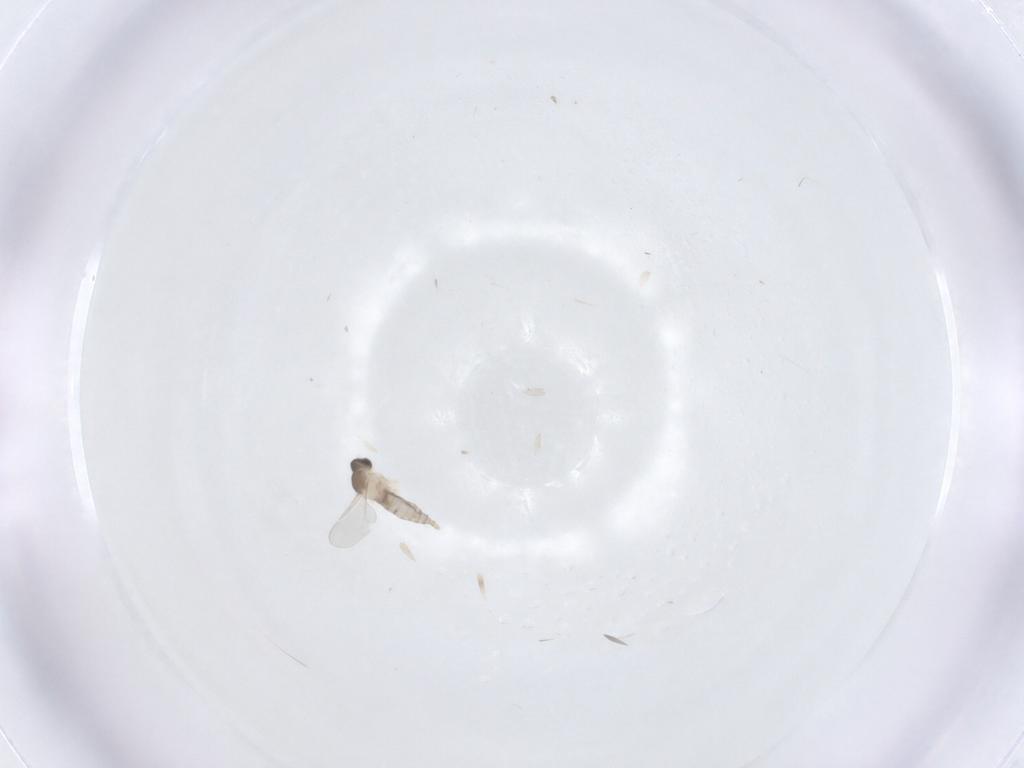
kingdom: Animalia
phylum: Arthropoda
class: Insecta
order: Diptera
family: Cecidomyiidae
